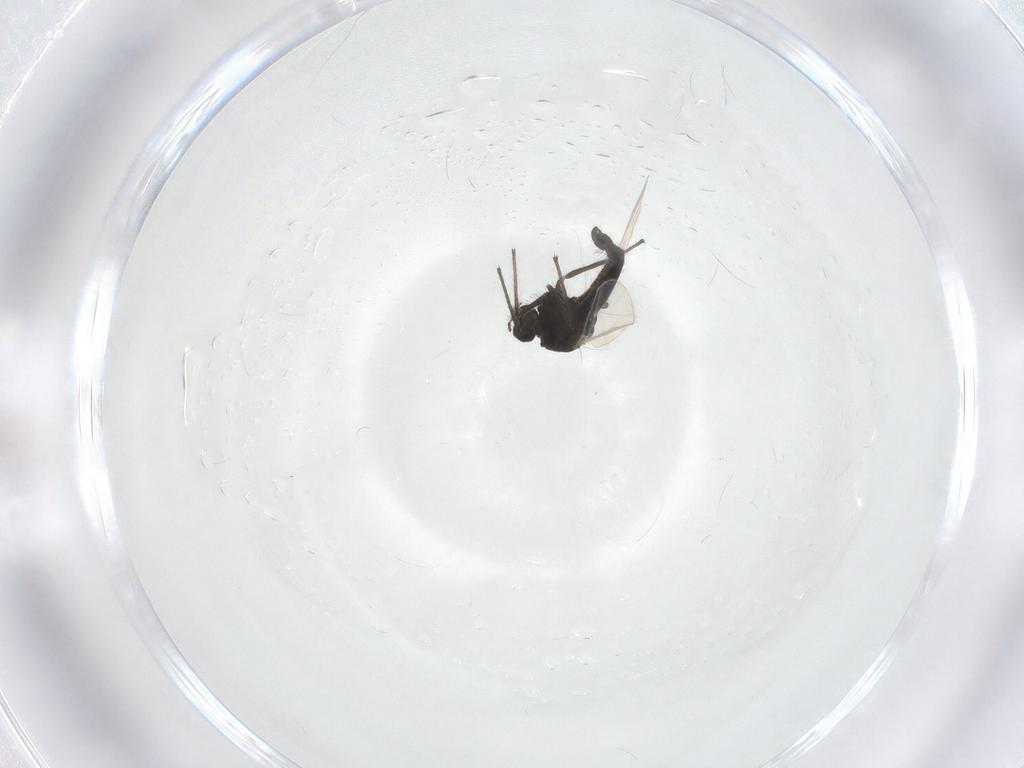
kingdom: Animalia
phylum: Arthropoda
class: Insecta
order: Diptera
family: Chironomidae
